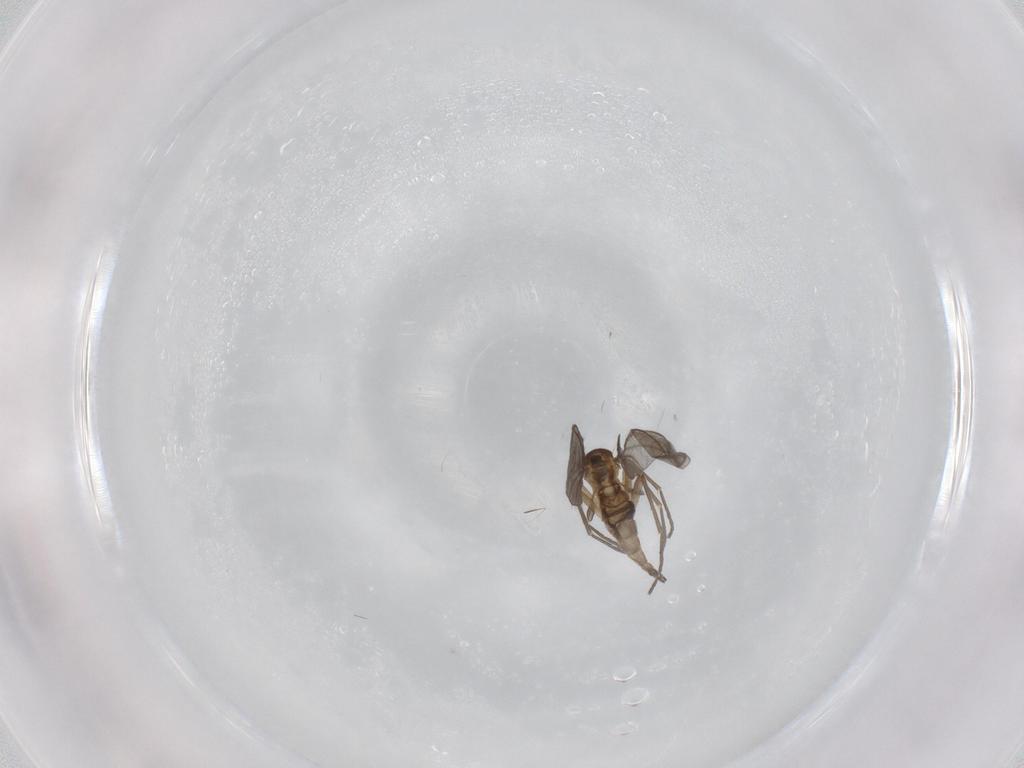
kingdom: Animalia
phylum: Arthropoda
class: Insecta
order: Diptera
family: Sciaridae
